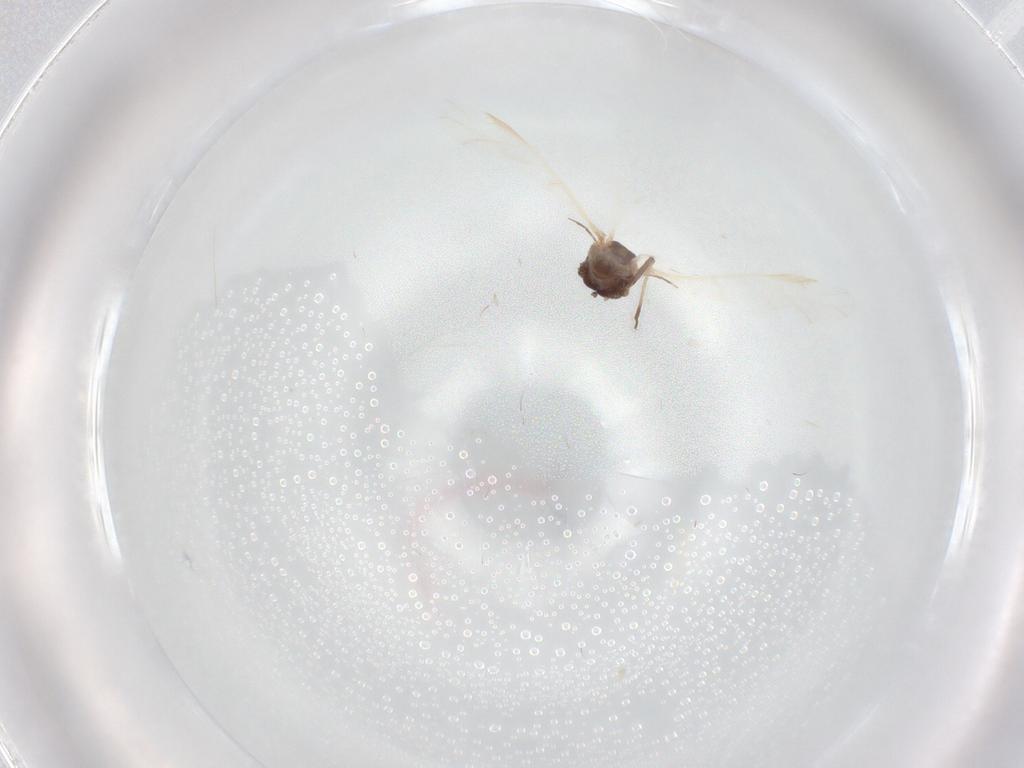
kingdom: Animalia
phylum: Arthropoda
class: Insecta
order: Hemiptera
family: Aphididae
